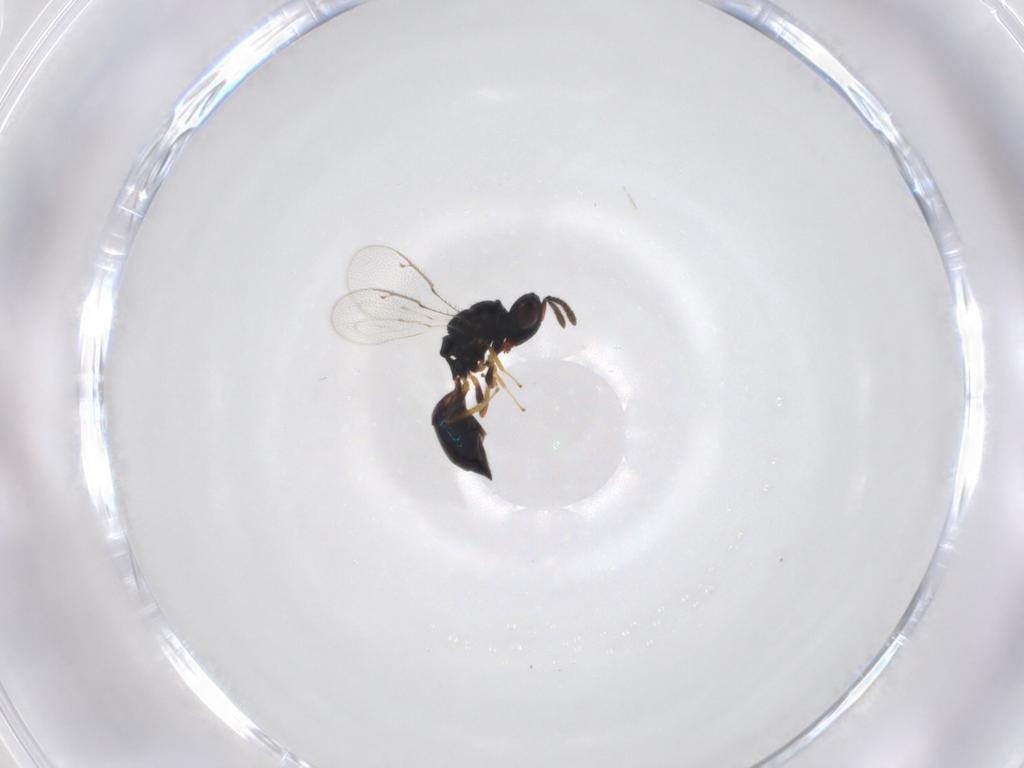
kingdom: Animalia
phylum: Arthropoda
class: Insecta
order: Hymenoptera
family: Pteromalidae
